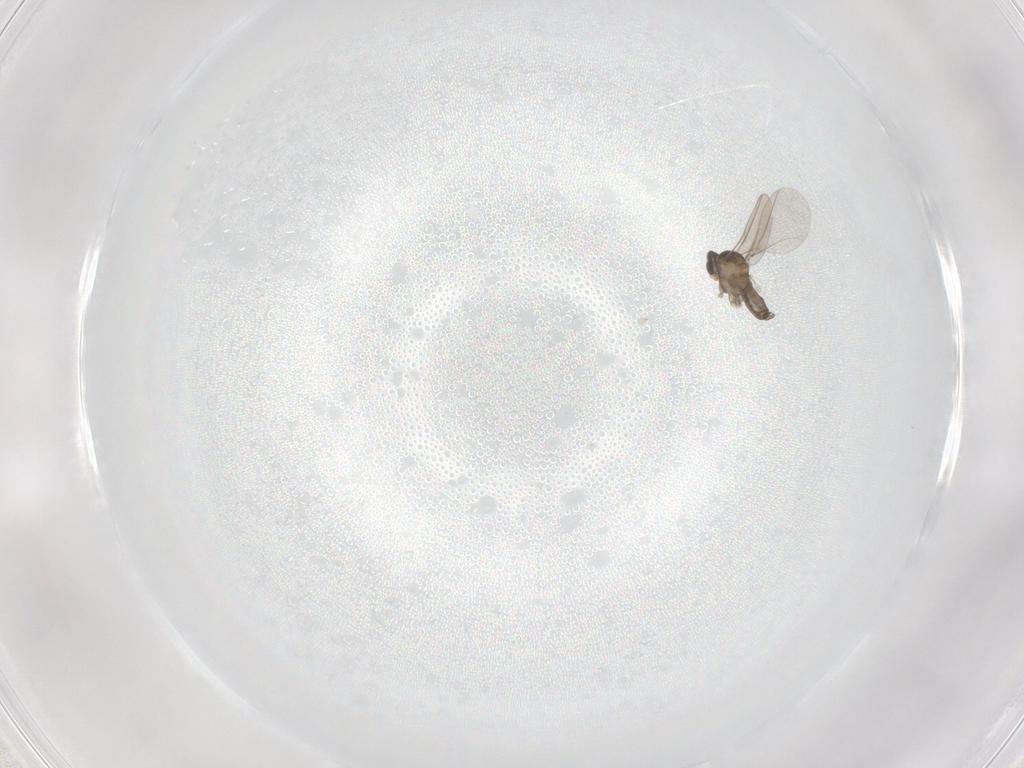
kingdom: Animalia
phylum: Arthropoda
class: Insecta
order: Diptera
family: Cecidomyiidae
